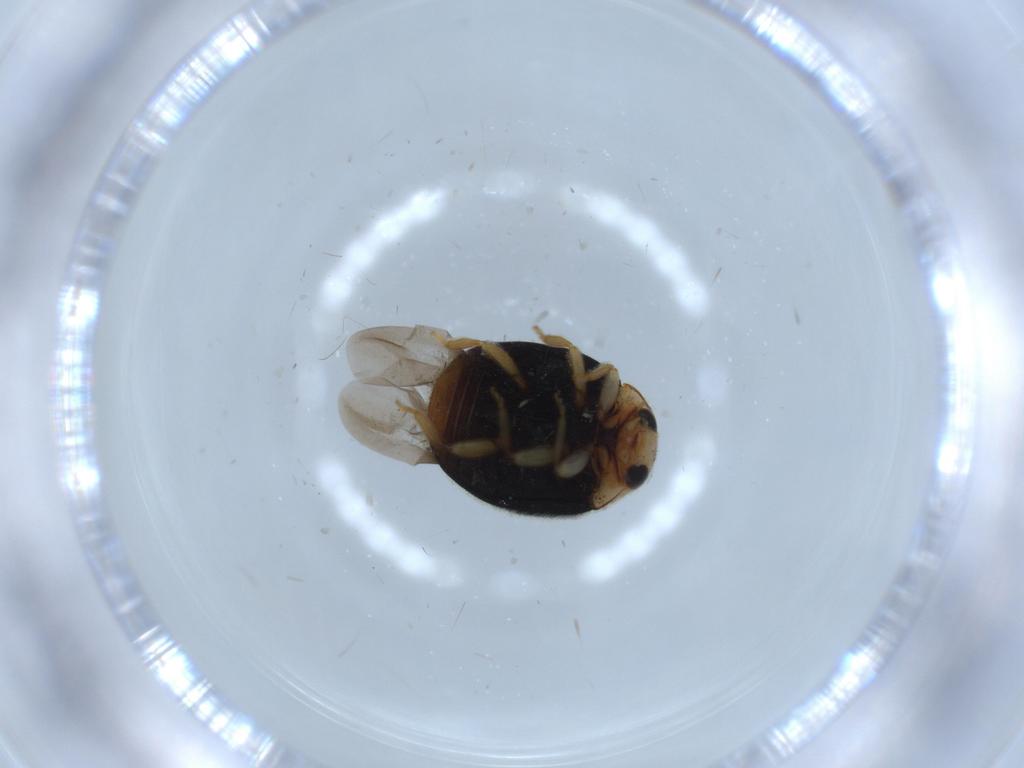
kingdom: Animalia
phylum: Arthropoda
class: Insecta
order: Coleoptera
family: Coccinellidae
